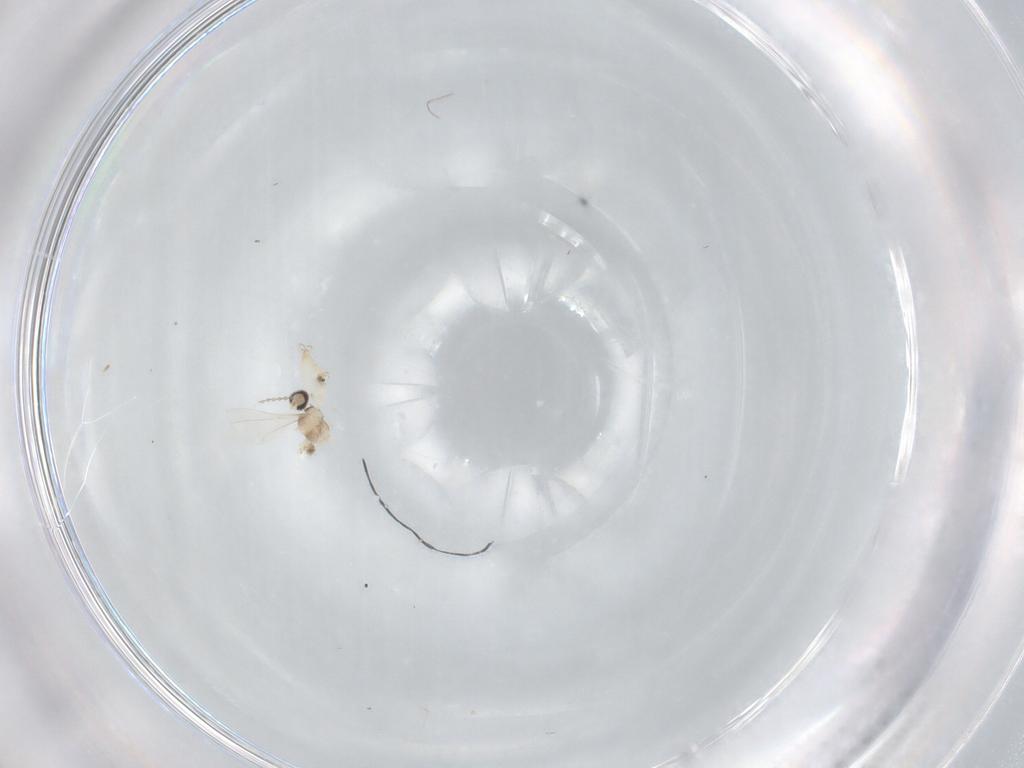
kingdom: Animalia
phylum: Arthropoda
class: Insecta
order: Diptera
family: Cecidomyiidae
